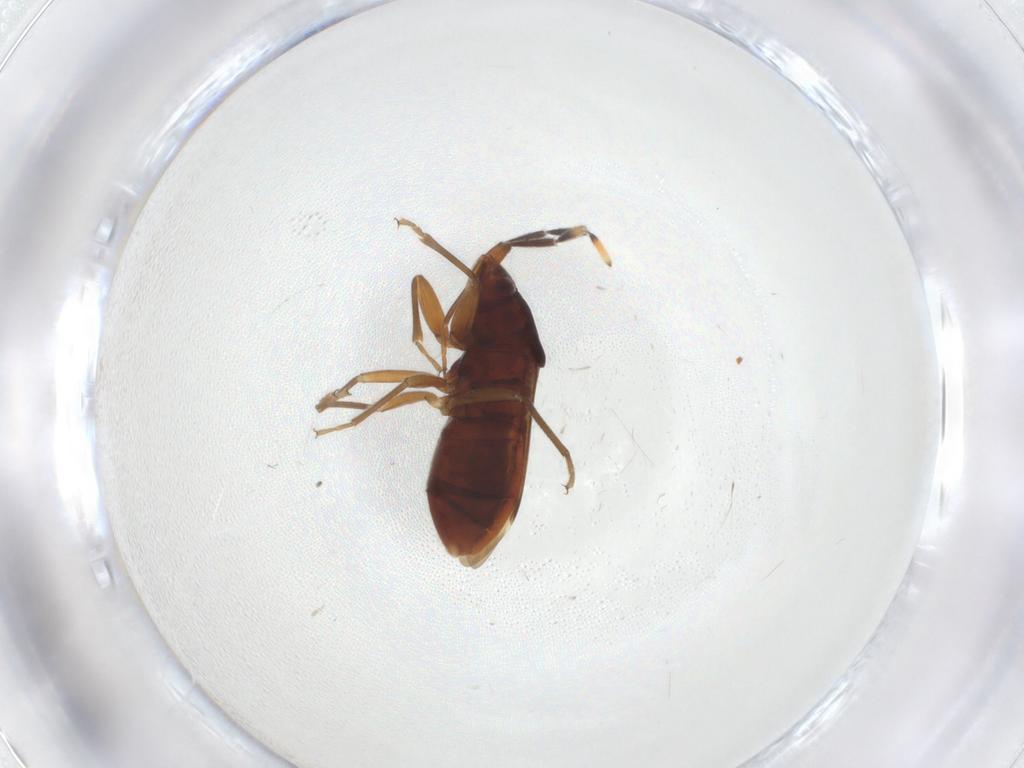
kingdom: Animalia
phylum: Arthropoda
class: Insecta
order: Hemiptera
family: Rhyparochromidae
